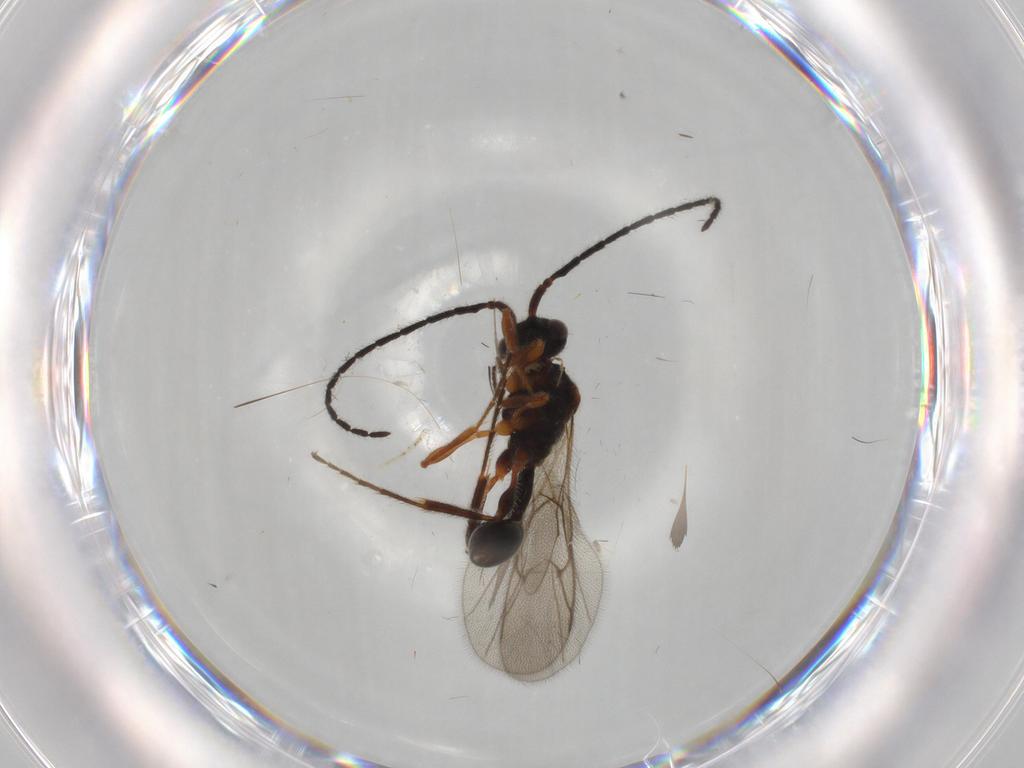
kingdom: Animalia
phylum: Arthropoda
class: Insecta
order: Hymenoptera
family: Diapriidae
